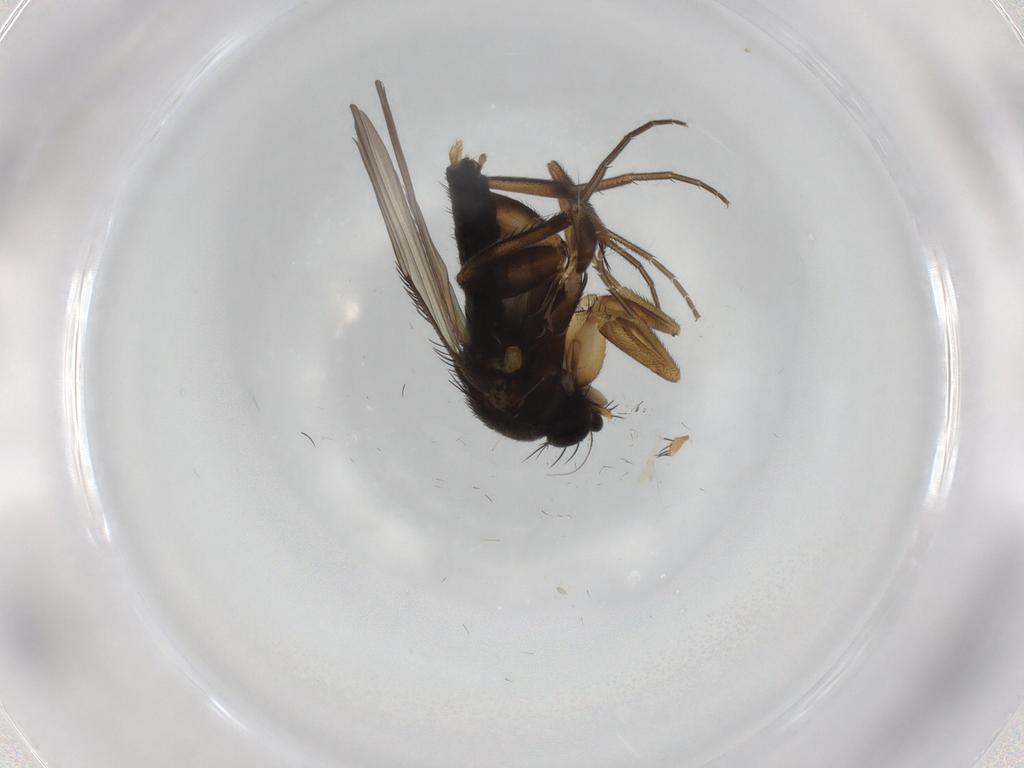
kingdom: Animalia
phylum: Arthropoda
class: Insecta
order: Diptera
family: Phoridae
